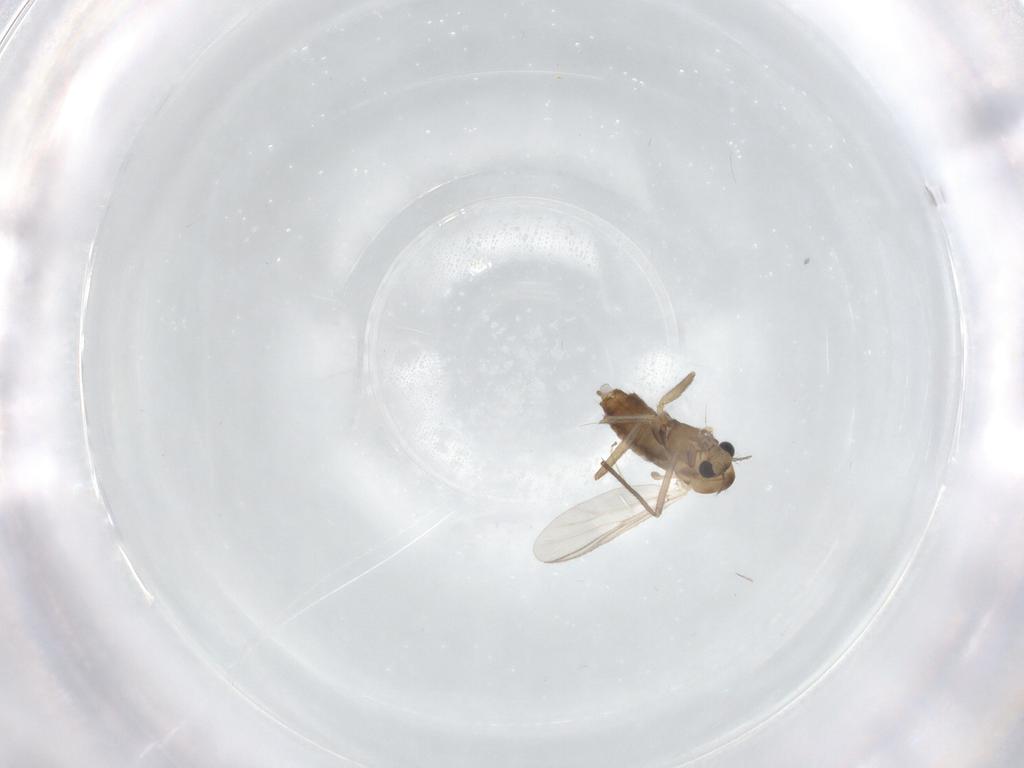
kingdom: Animalia
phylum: Arthropoda
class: Insecta
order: Diptera
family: Chironomidae
